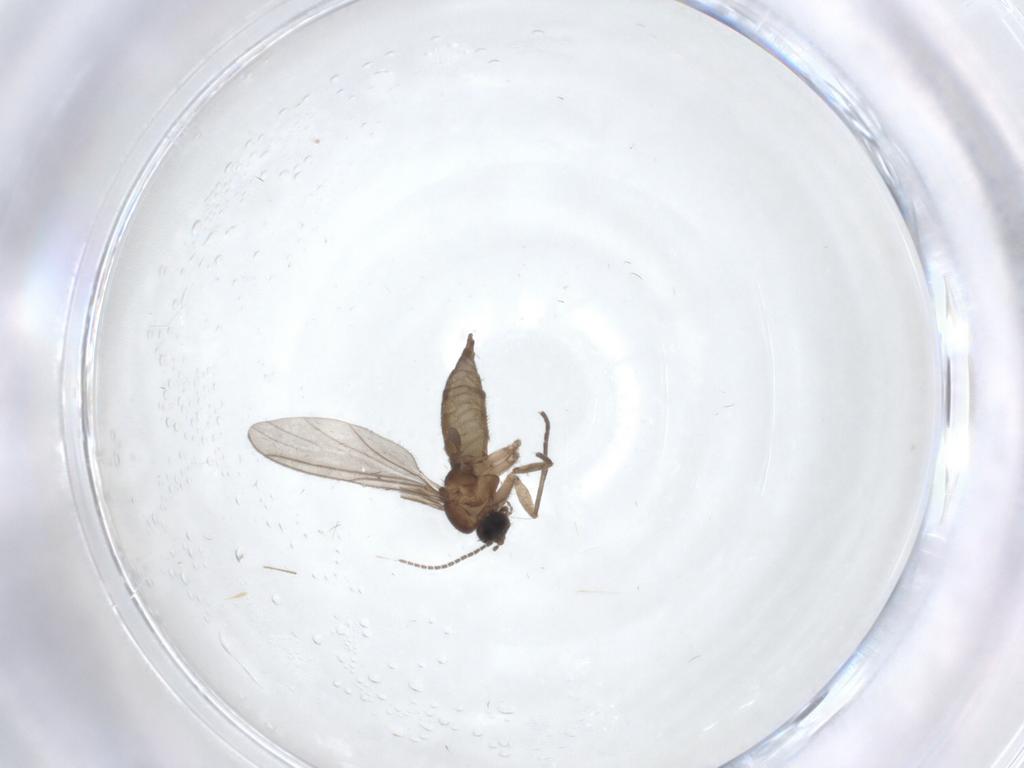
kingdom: Animalia
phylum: Arthropoda
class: Insecta
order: Diptera
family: Sciaridae
